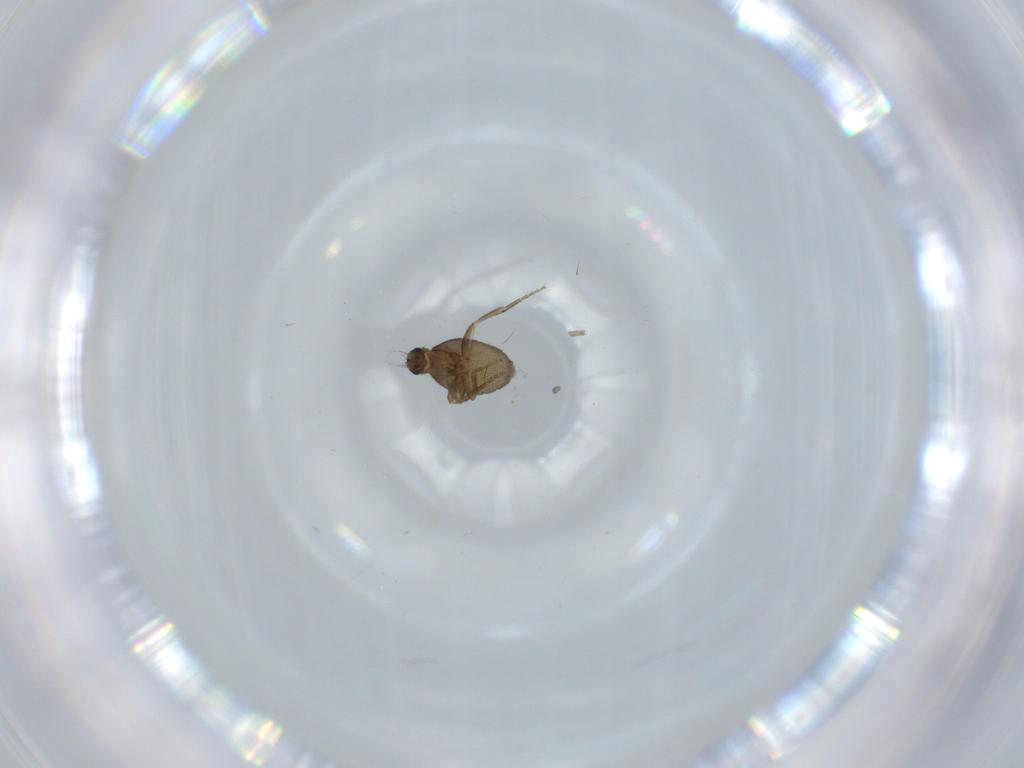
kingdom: Animalia
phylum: Arthropoda
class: Insecta
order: Diptera
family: Phoridae
